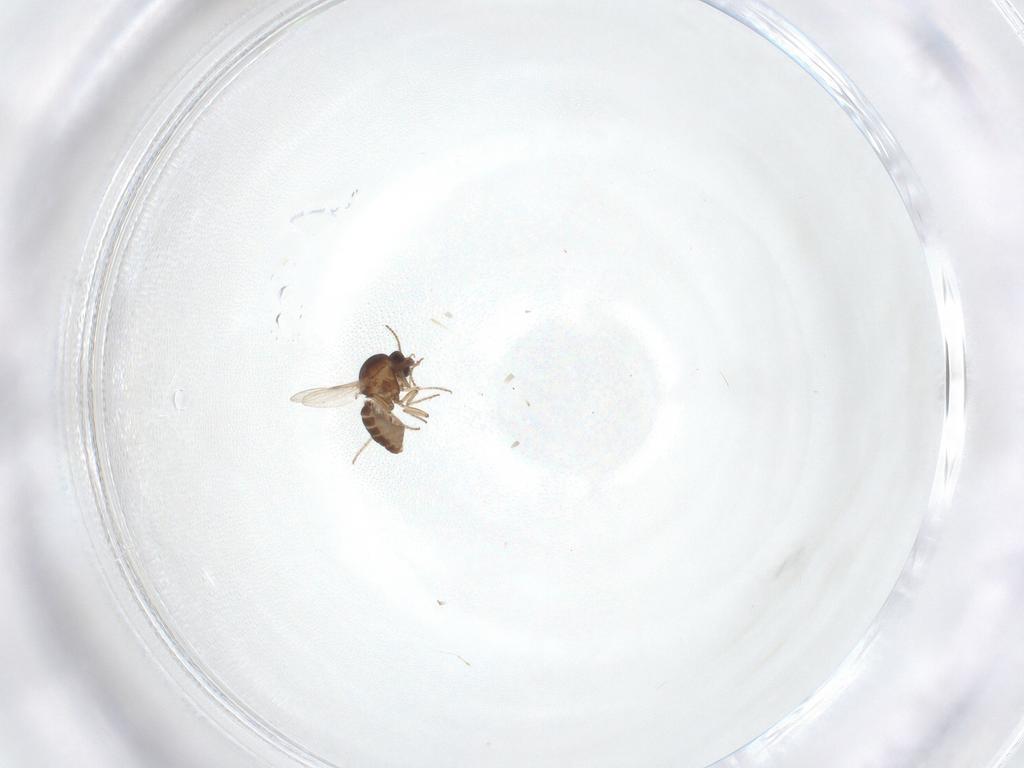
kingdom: Animalia
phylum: Arthropoda
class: Insecta
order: Diptera
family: Ceratopogonidae
